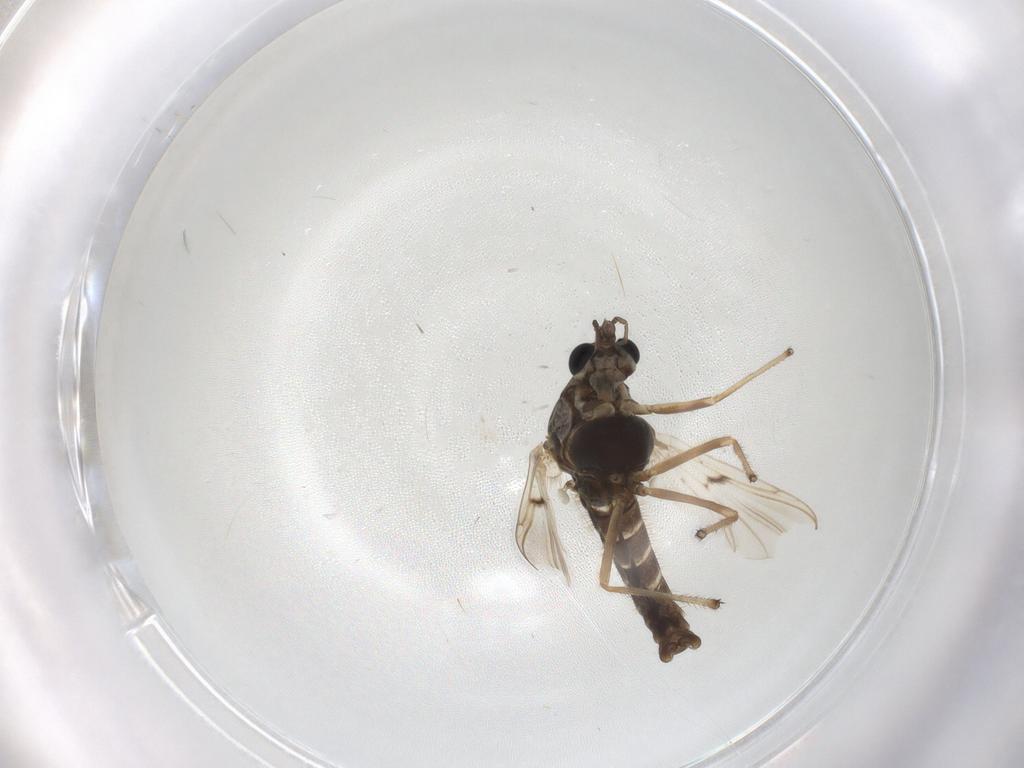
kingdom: Animalia
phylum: Arthropoda
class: Insecta
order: Diptera
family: Chironomidae
